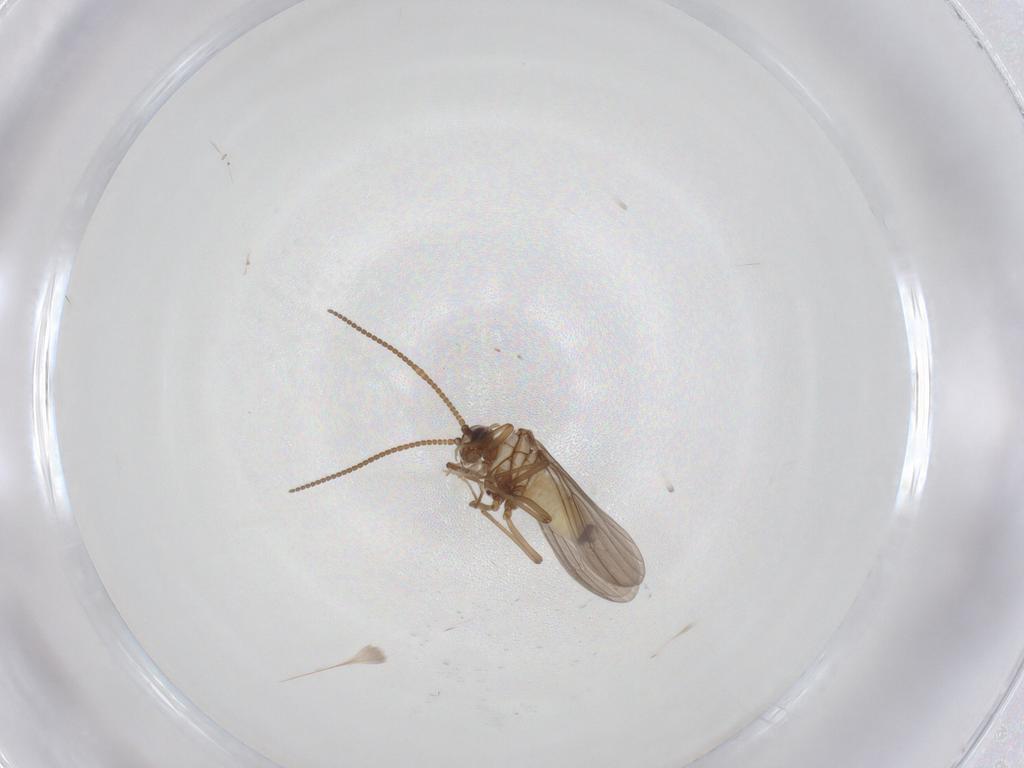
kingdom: Animalia
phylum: Arthropoda
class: Insecta
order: Neuroptera
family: Coniopterygidae
